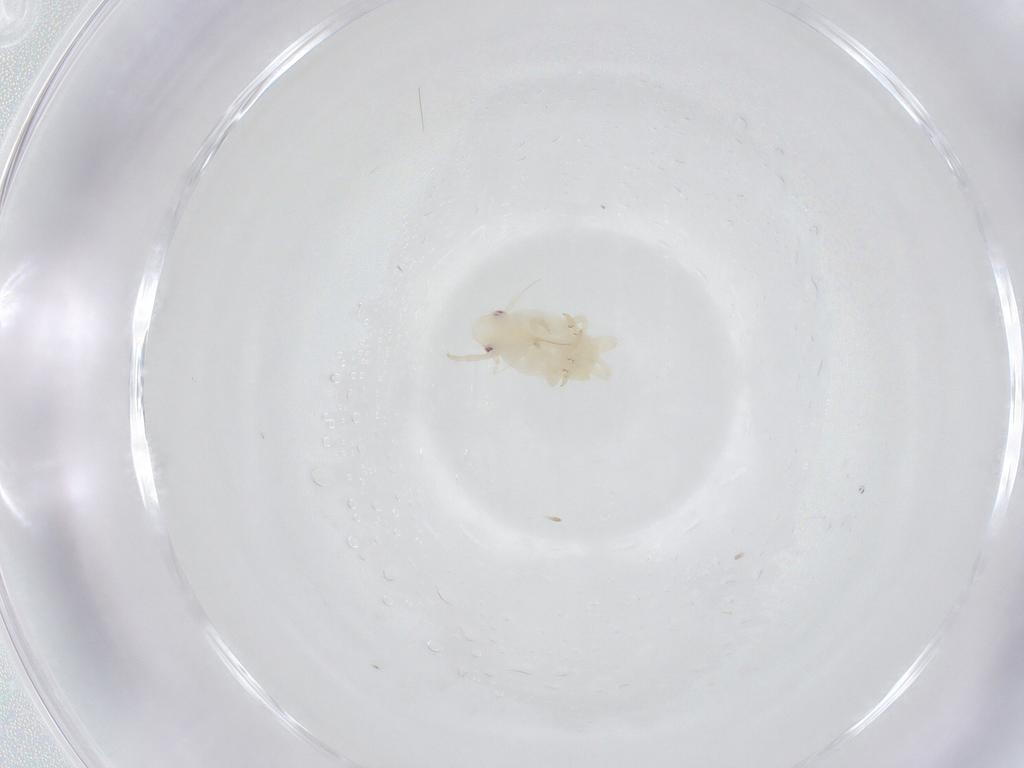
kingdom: Animalia
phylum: Arthropoda
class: Insecta
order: Hemiptera
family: Flatidae
